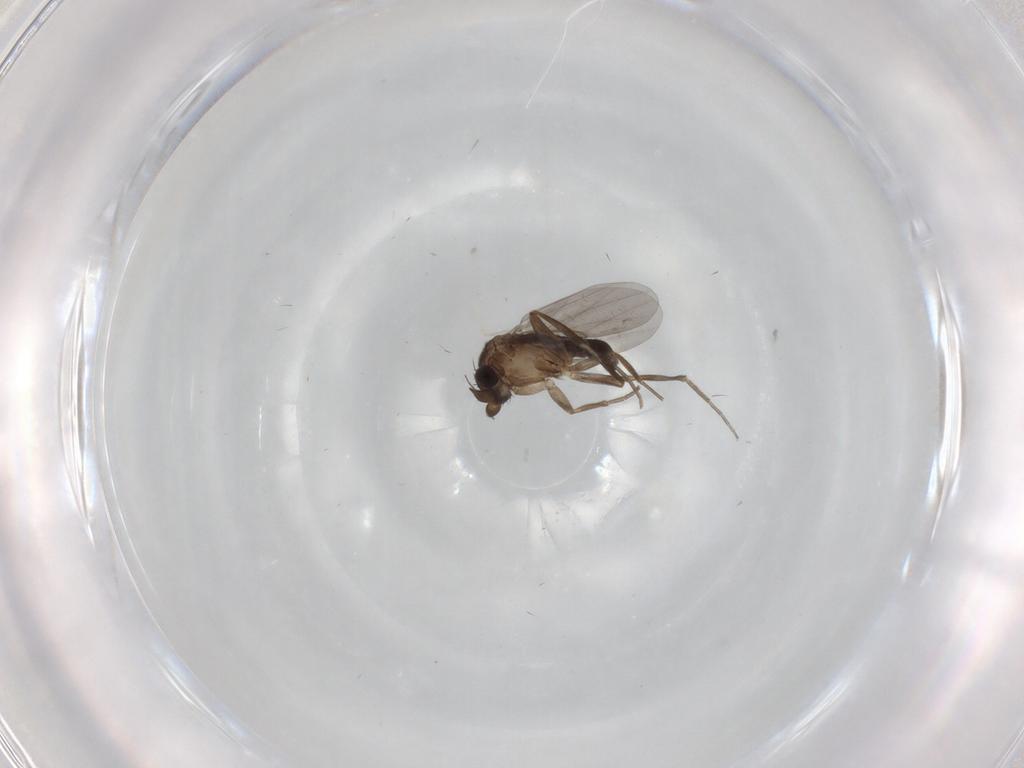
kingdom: Animalia
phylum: Arthropoda
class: Insecta
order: Diptera
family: Phoridae
